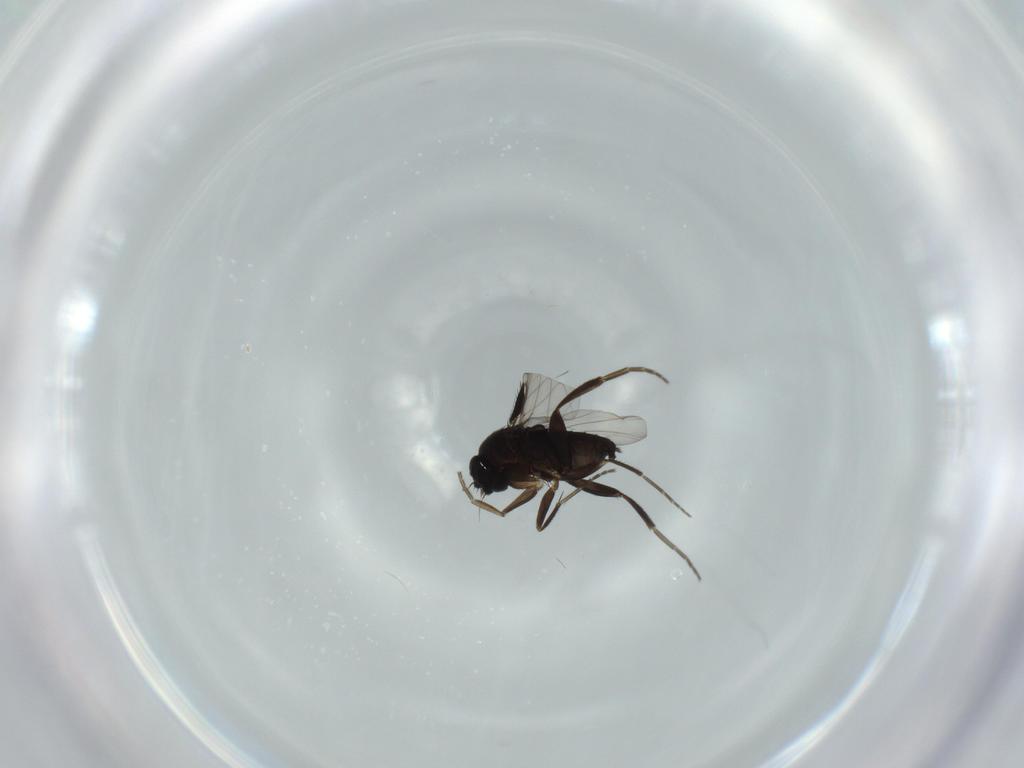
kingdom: Animalia
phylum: Arthropoda
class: Insecta
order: Diptera
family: Phoridae
